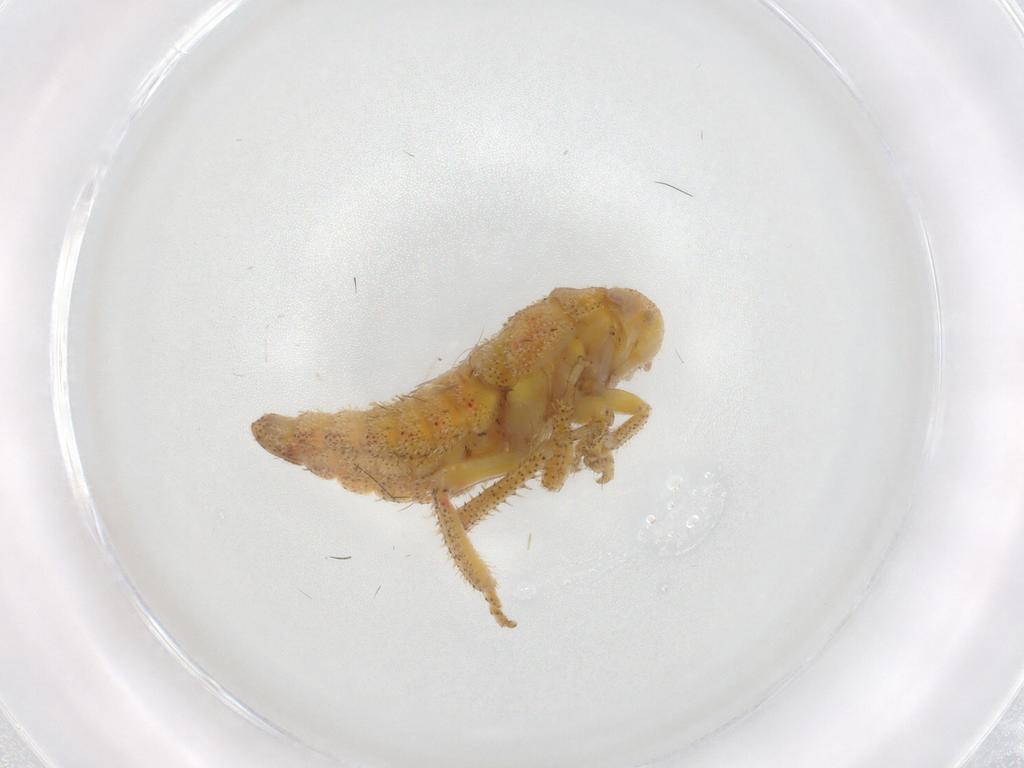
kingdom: Animalia
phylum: Arthropoda
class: Insecta
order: Hemiptera
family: Cicadellidae
